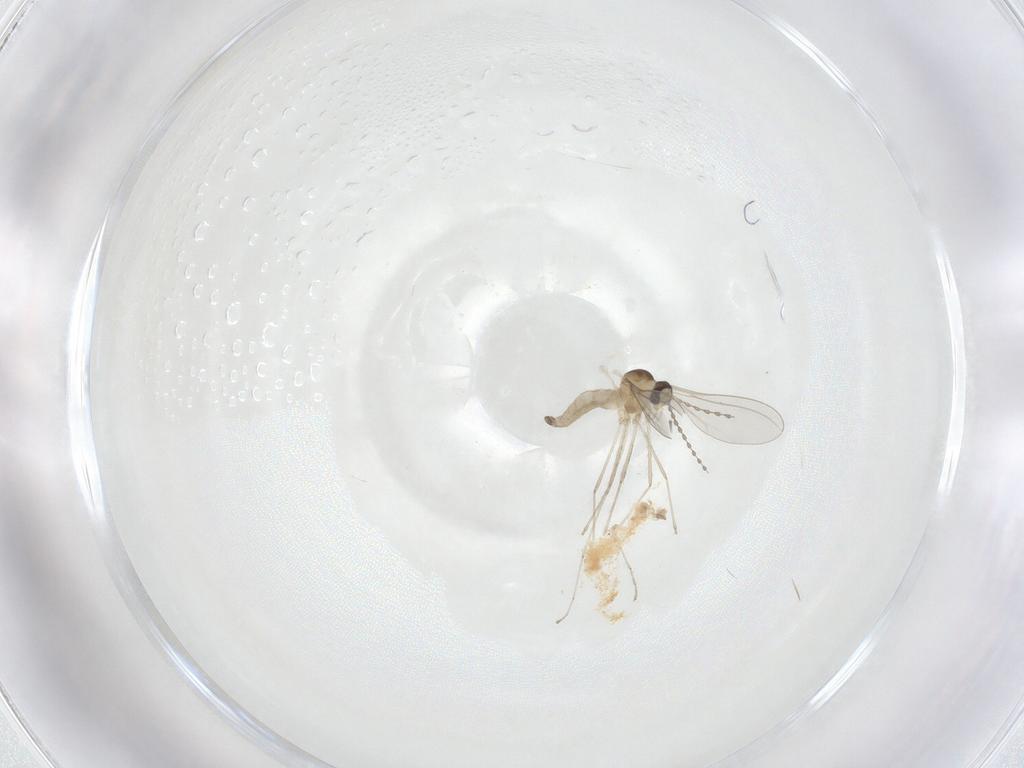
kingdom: Animalia
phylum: Arthropoda
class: Insecta
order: Diptera
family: Cecidomyiidae
